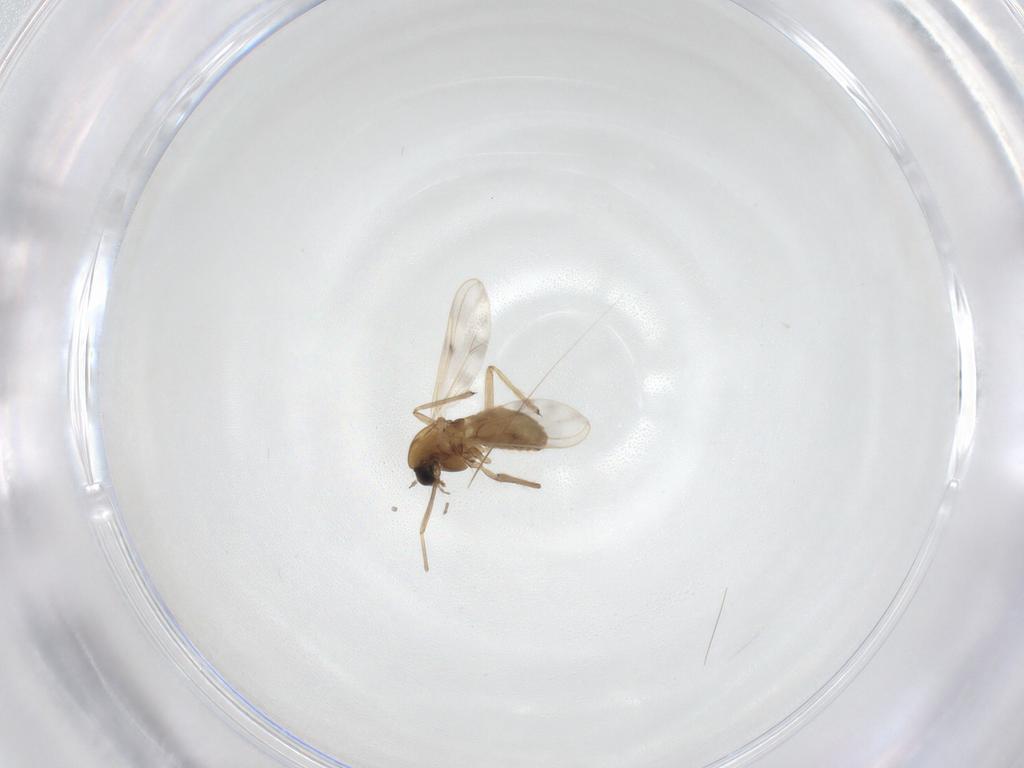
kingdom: Animalia
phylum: Arthropoda
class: Insecta
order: Diptera
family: Chironomidae
